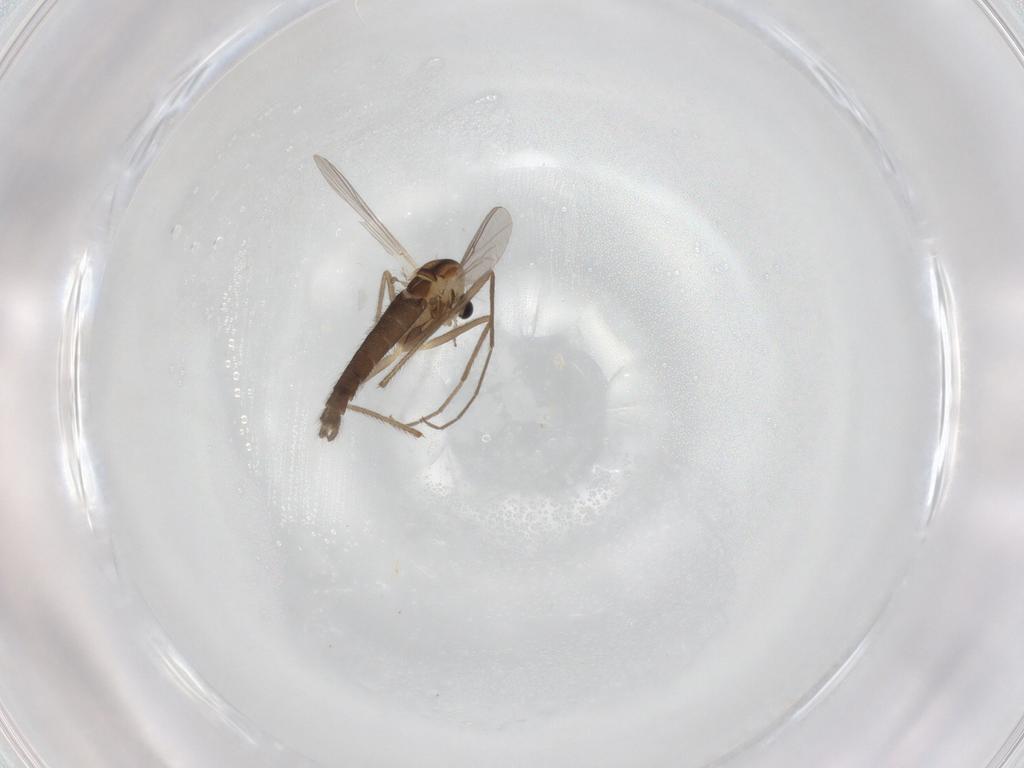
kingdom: Animalia
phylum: Arthropoda
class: Insecta
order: Diptera
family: Chironomidae
